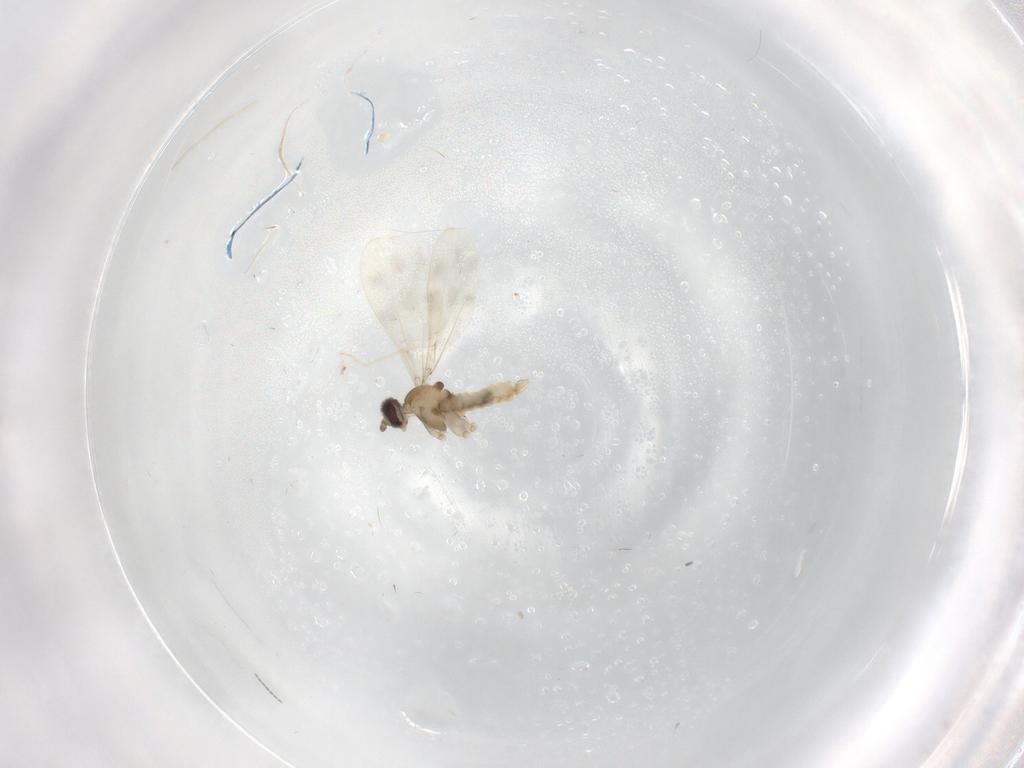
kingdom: Animalia
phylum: Arthropoda
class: Insecta
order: Diptera
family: Cecidomyiidae
